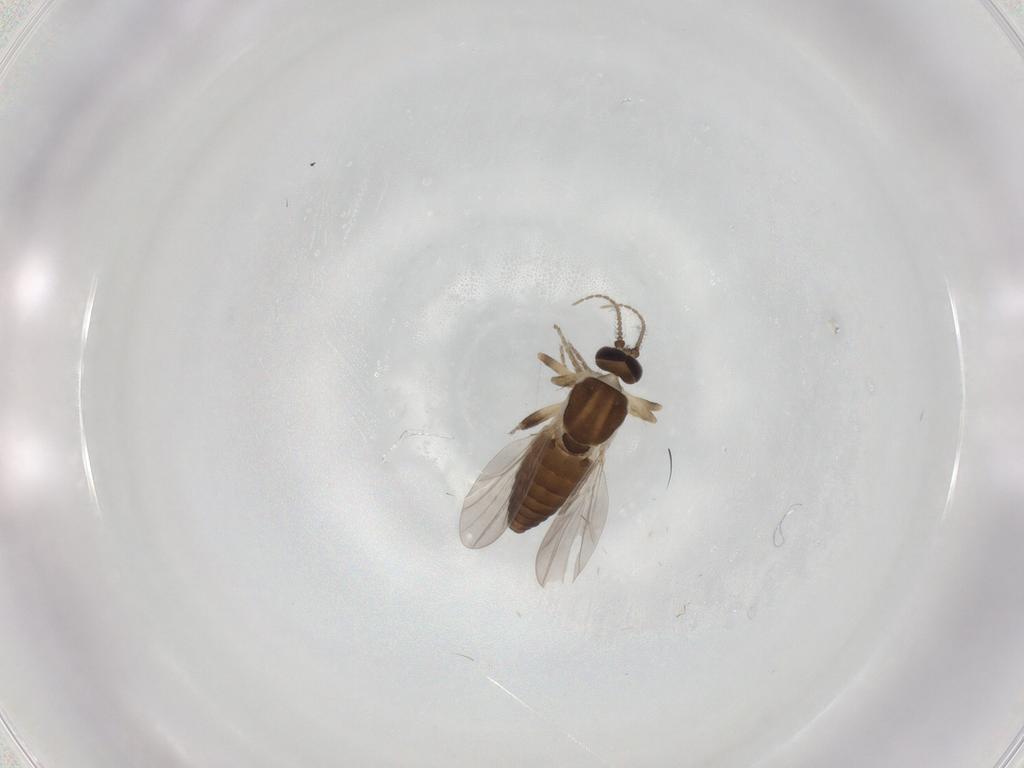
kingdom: Animalia
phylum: Arthropoda
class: Insecta
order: Diptera
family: Ceratopogonidae
